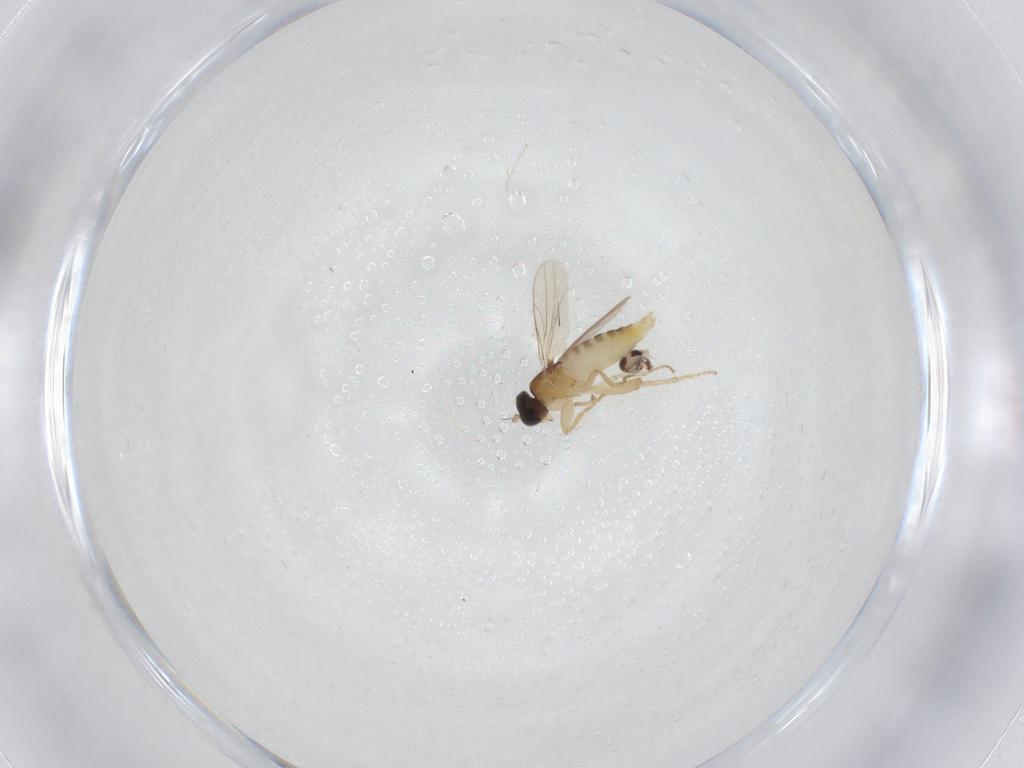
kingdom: Animalia
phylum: Arthropoda
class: Insecta
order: Diptera
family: Cecidomyiidae
